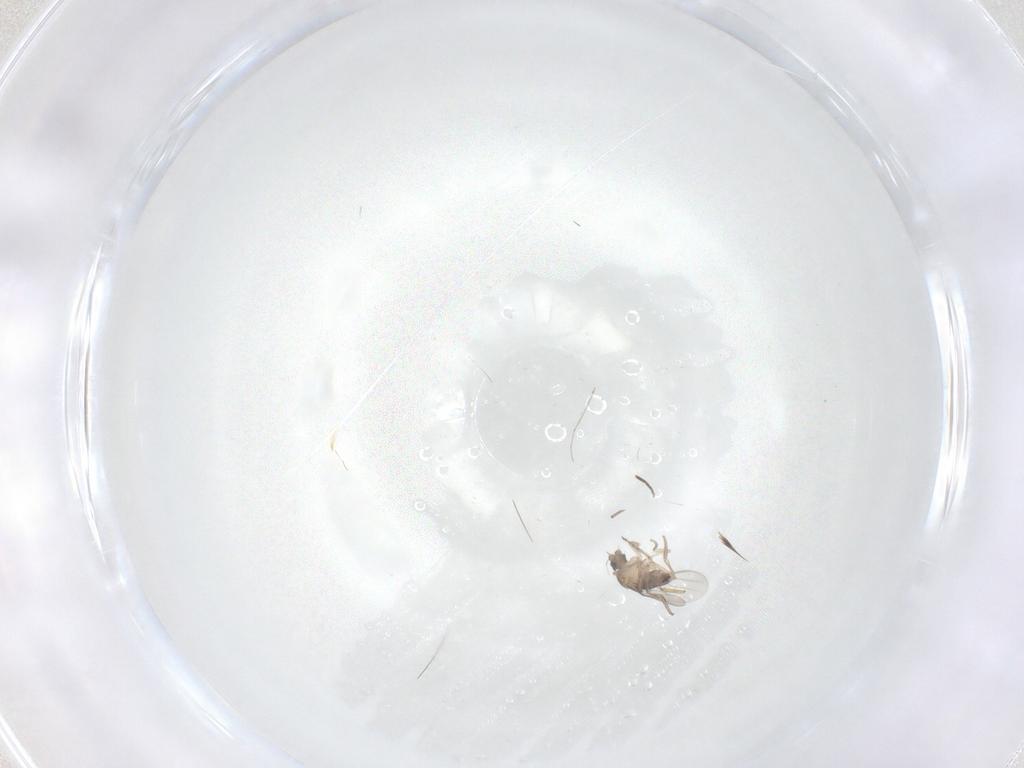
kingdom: Animalia
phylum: Arthropoda
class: Insecta
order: Diptera
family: Phoridae
